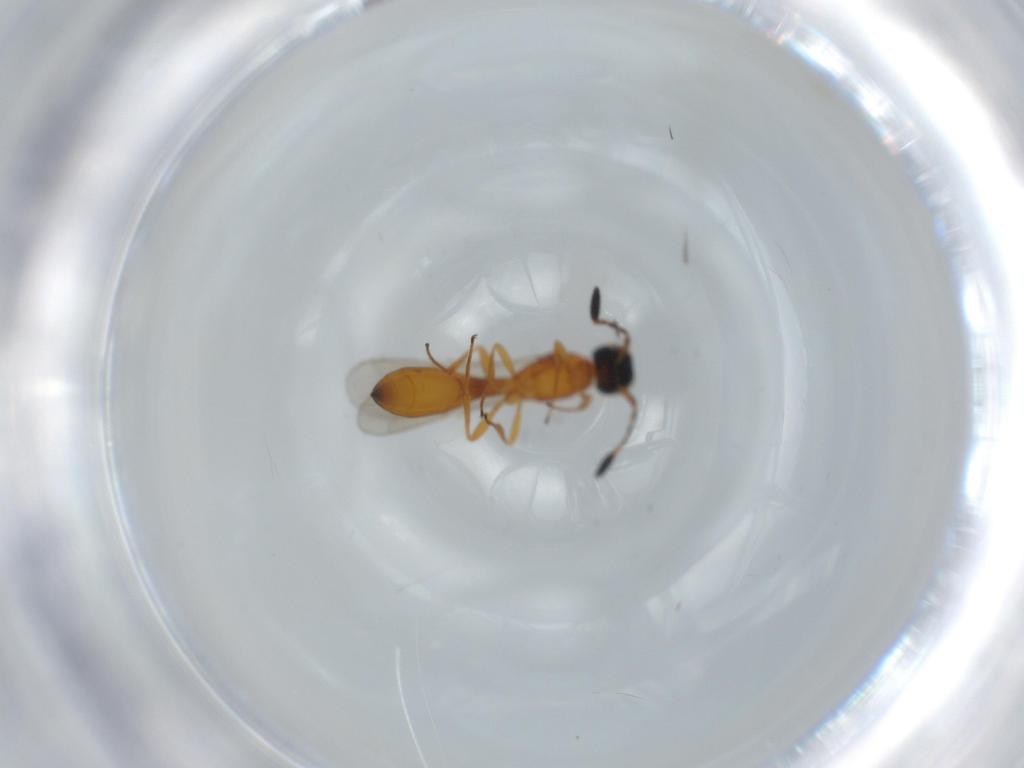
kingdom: Animalia
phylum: Arthropoda
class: Insecta
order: Hymenoptera
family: Scelionidae
